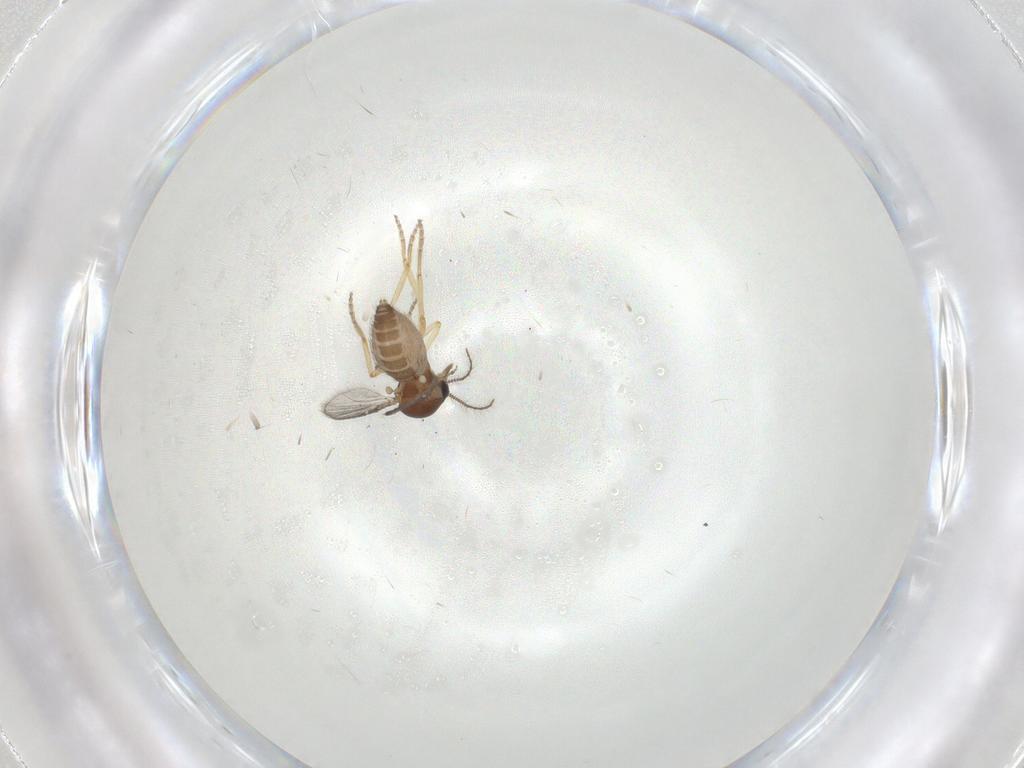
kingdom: Animalia
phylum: Arthropoda
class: Insecta
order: Diptera
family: Ceratopogonidae
